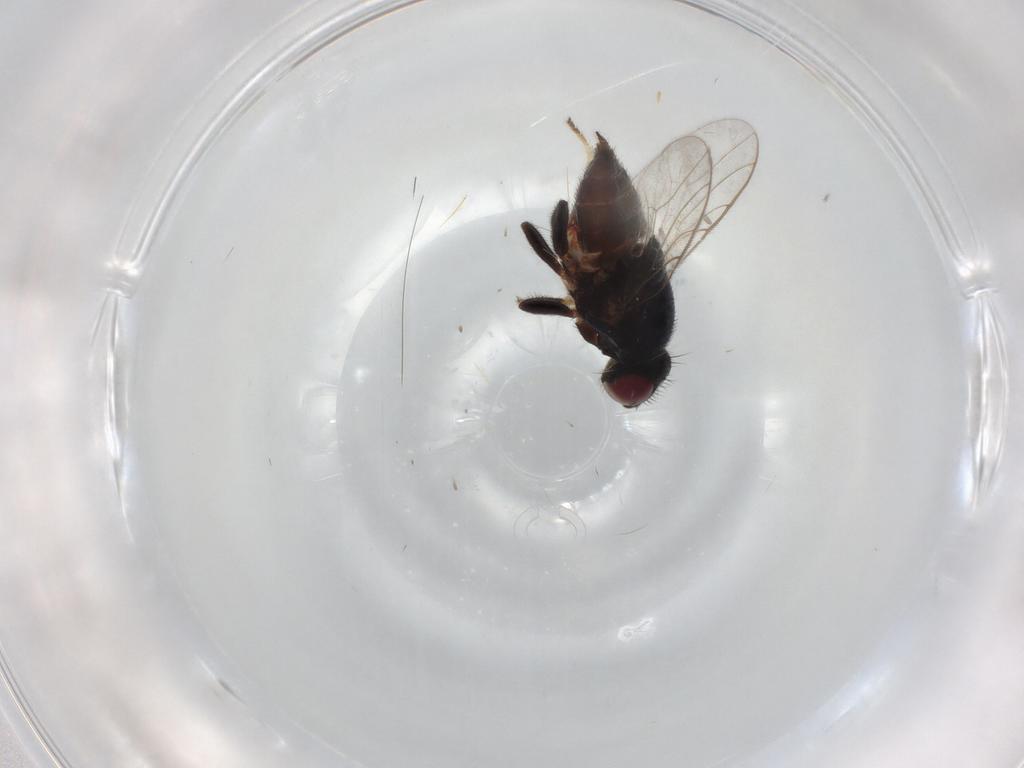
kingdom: Animalia
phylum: Arthropoda
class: Insecta
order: Diptera
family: Chloropidae
